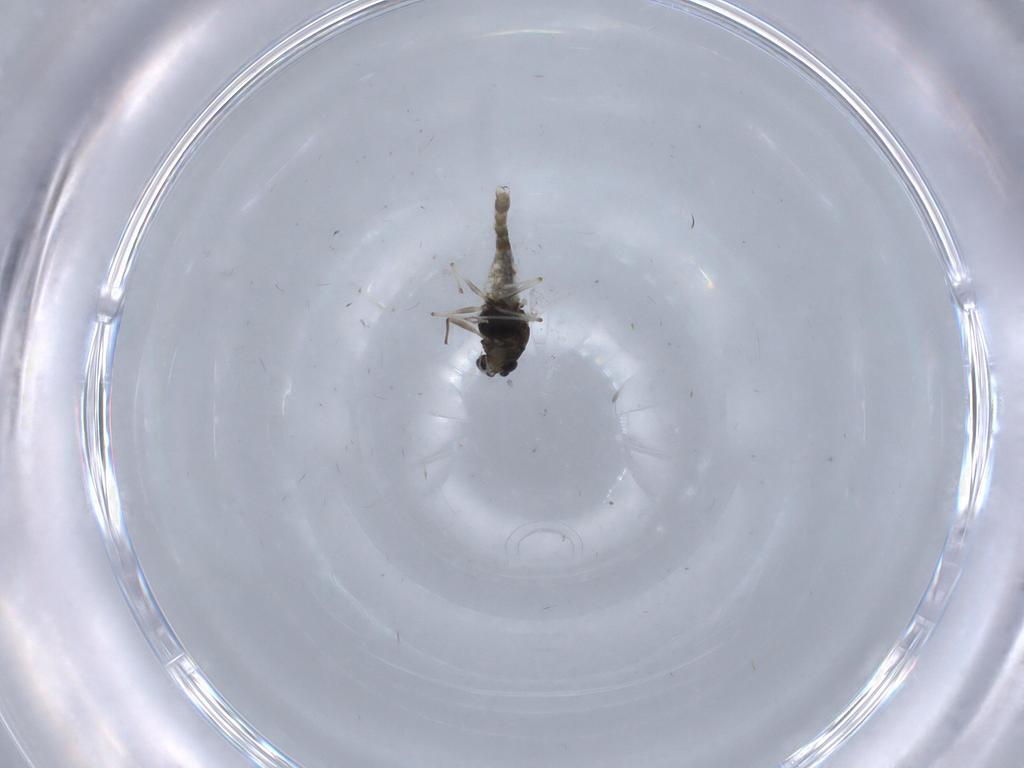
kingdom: Animalia
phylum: Arthropoda
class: Insecta
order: Diptera
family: Chironomidae
